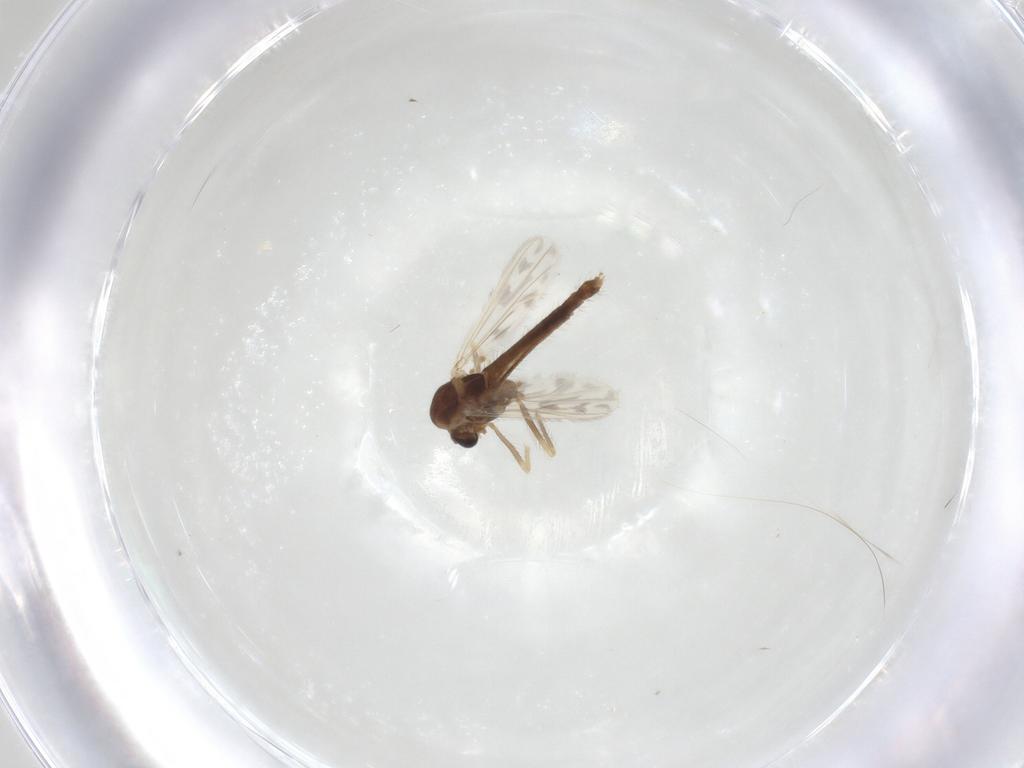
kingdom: Animalia
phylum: Arthropoda
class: Insecta
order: Diptera
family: Chironomidae
